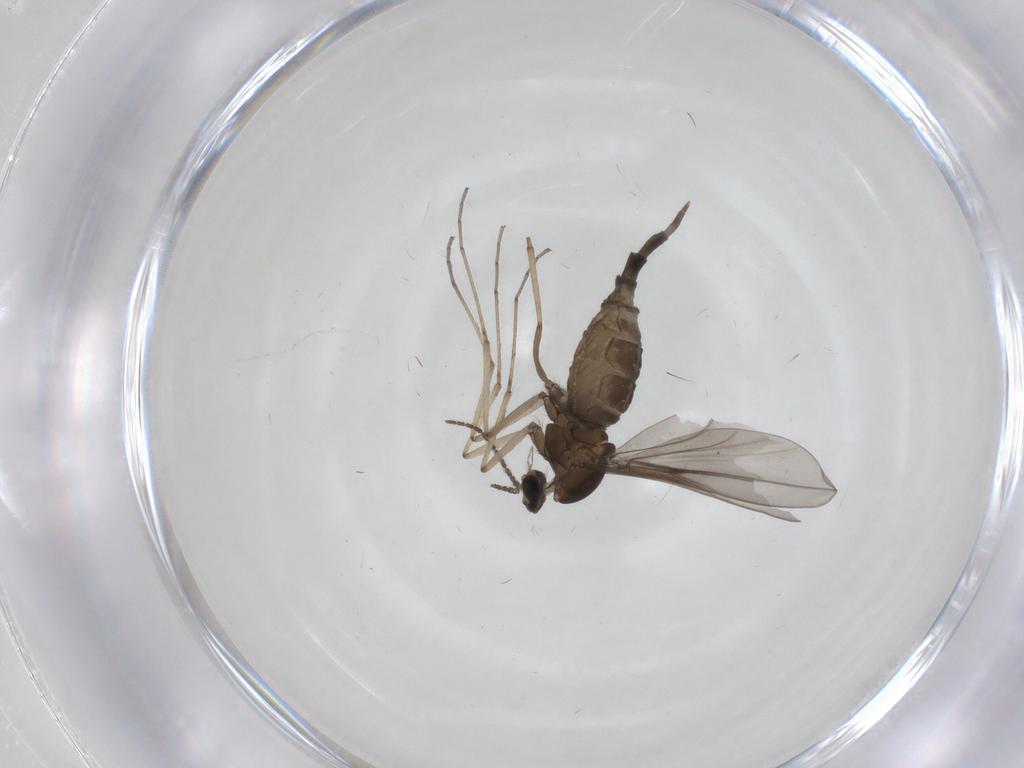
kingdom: Animalia
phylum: Arthropoda
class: Insecta
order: Diptera
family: Cecidomyiidae
